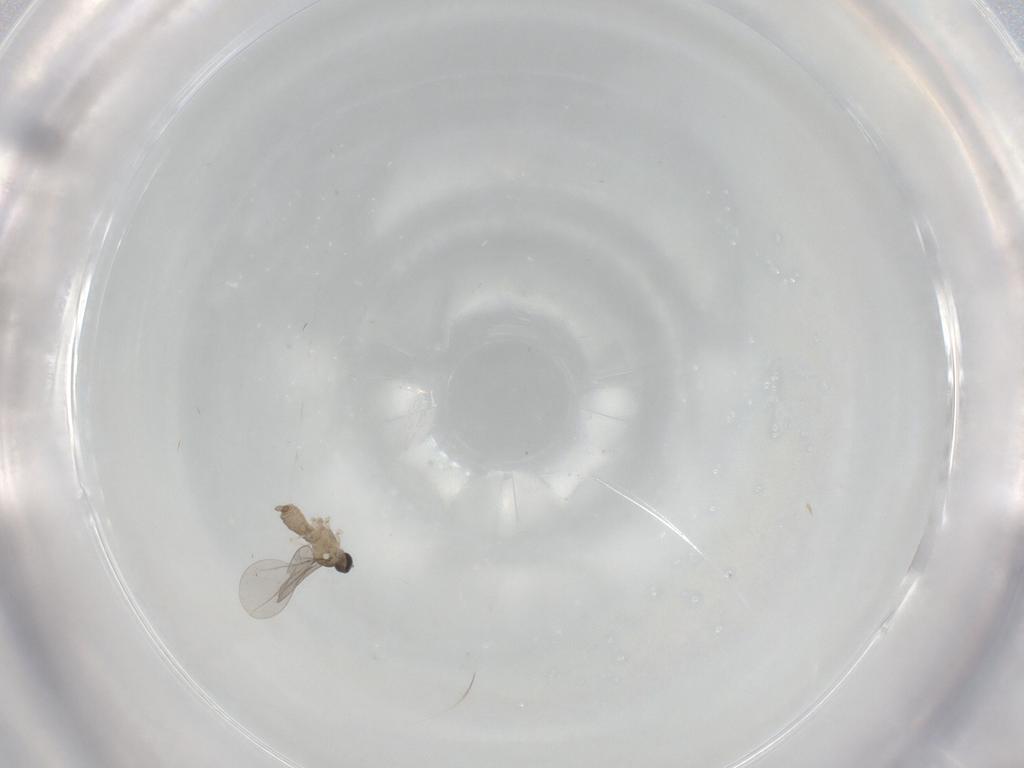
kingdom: Animalia
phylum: Arthropoda
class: Insecta
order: Diptera
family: Cecidomyiidae
